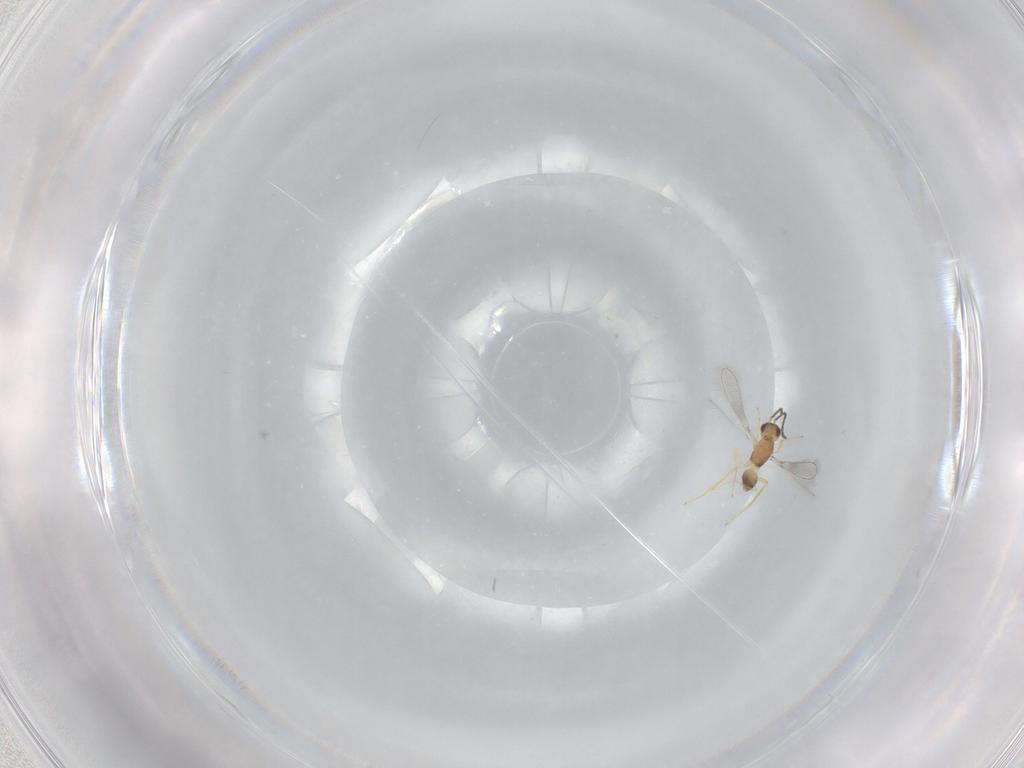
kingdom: Animalia
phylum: Arthropoda
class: Insecta
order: Hymenoptera
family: Mymaridae
